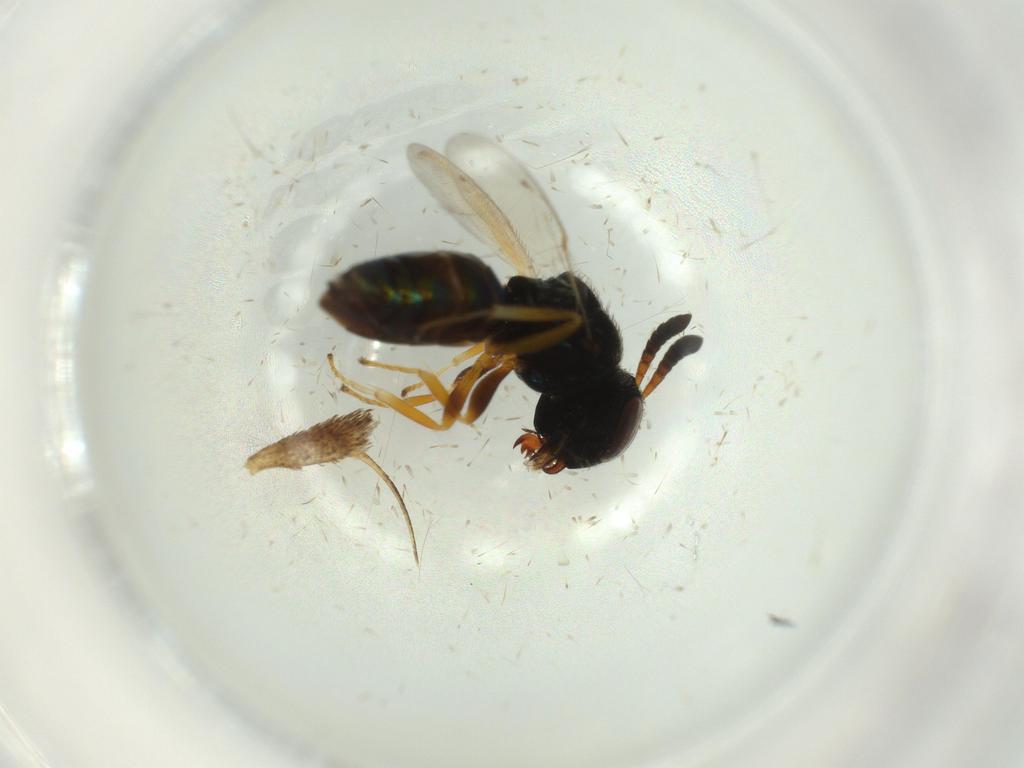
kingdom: Animalia
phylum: Arthropoda
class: Insecta
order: Hymenoptera
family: Agaonidae
